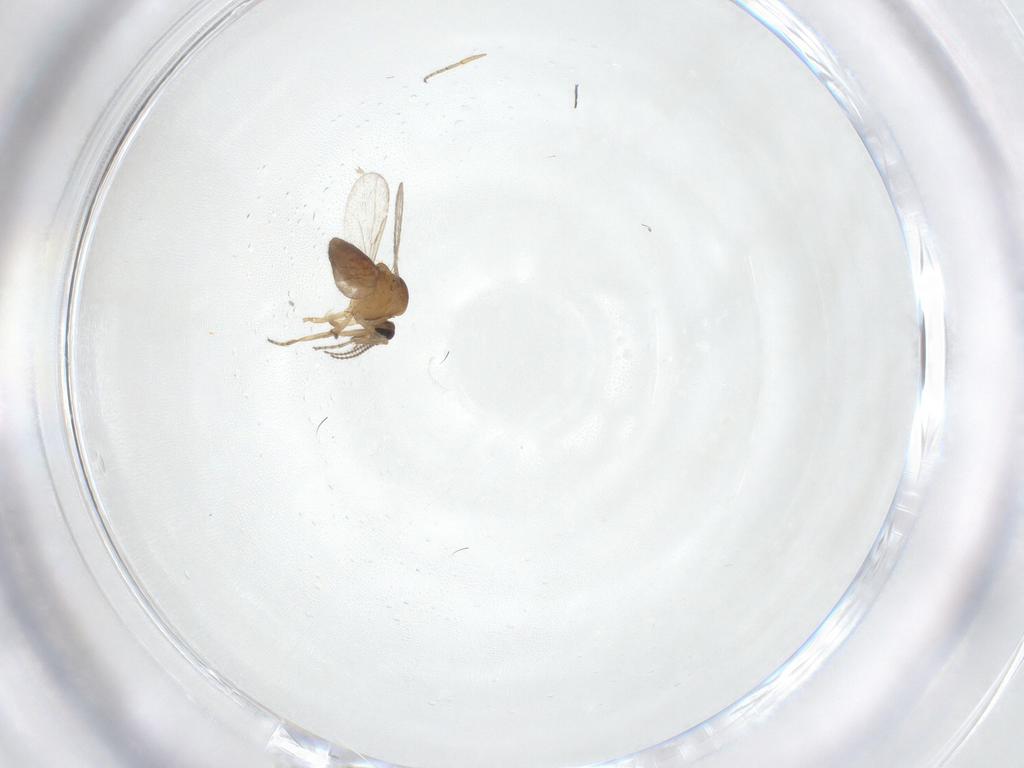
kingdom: Animalia
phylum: Arthropoda
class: Insecta
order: Diptera
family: Ceratopogonidae
